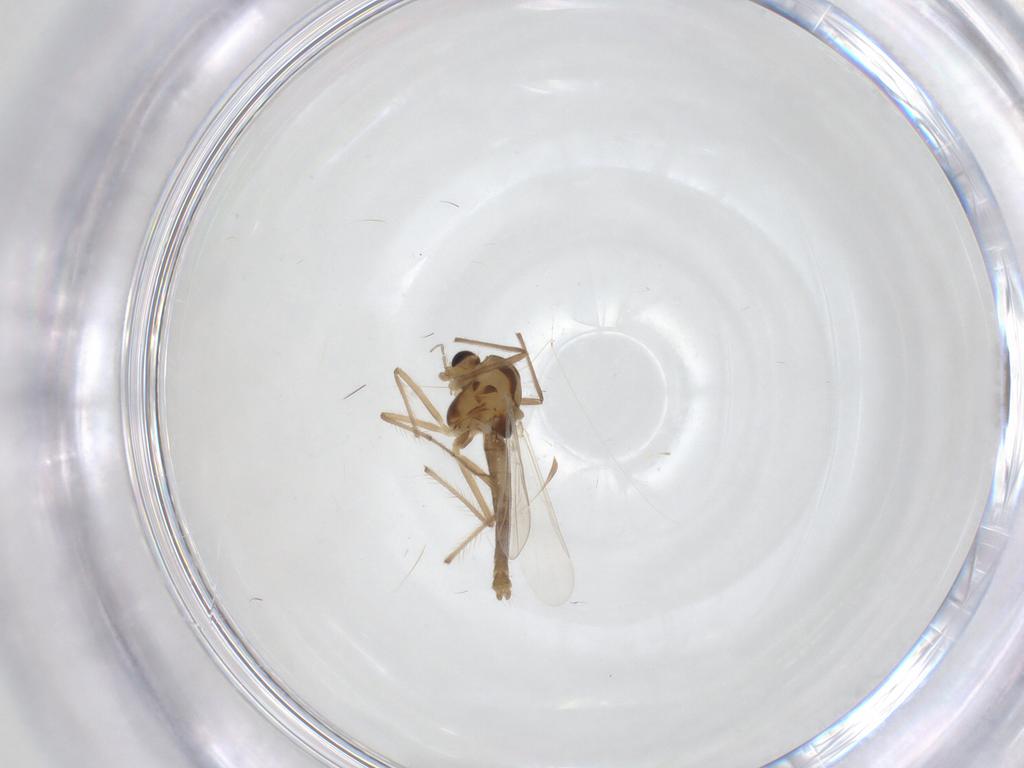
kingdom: Animalia
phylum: Arthropoda
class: Insecta
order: Diptera
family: Chironomidae
